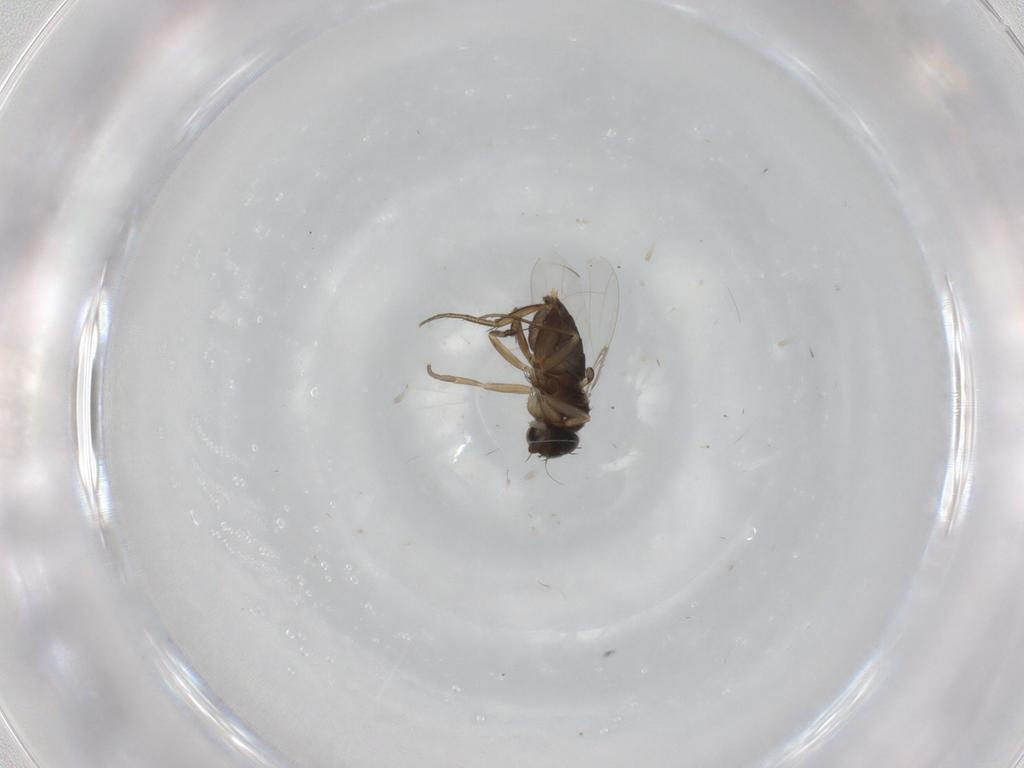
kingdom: Animalia
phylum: Arthropoda
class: Insecta
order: Diptera
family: Phoridae
